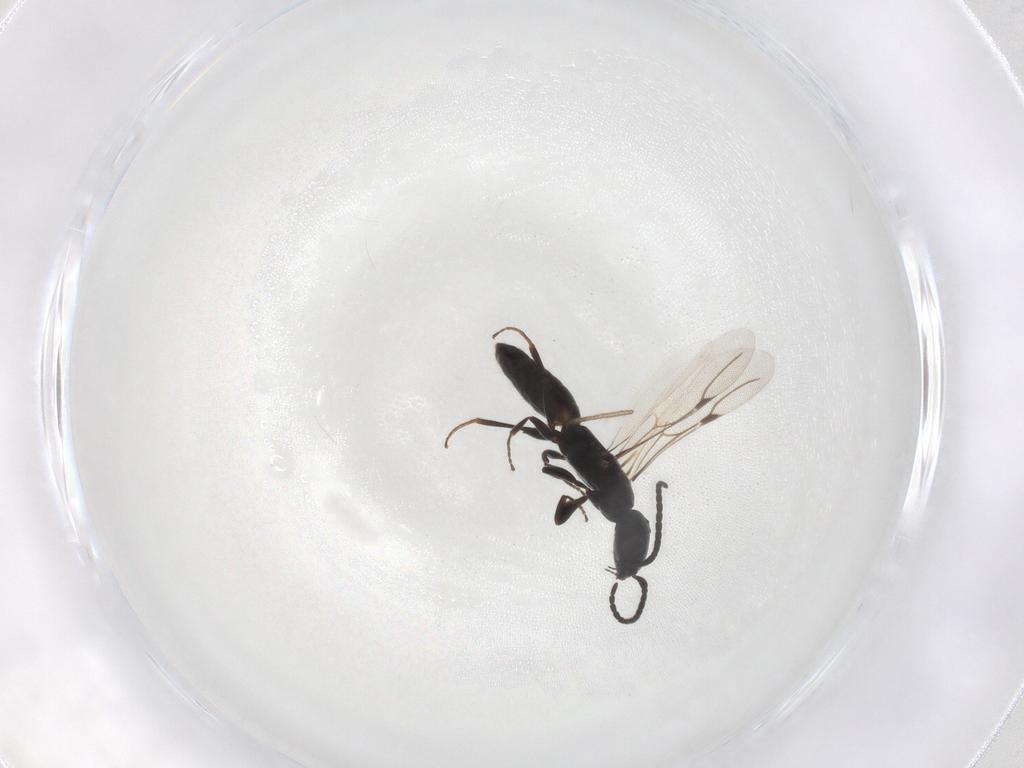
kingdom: Animalia
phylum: Arthropoda
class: Insecta
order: Hymenoptera
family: Bethylidae
